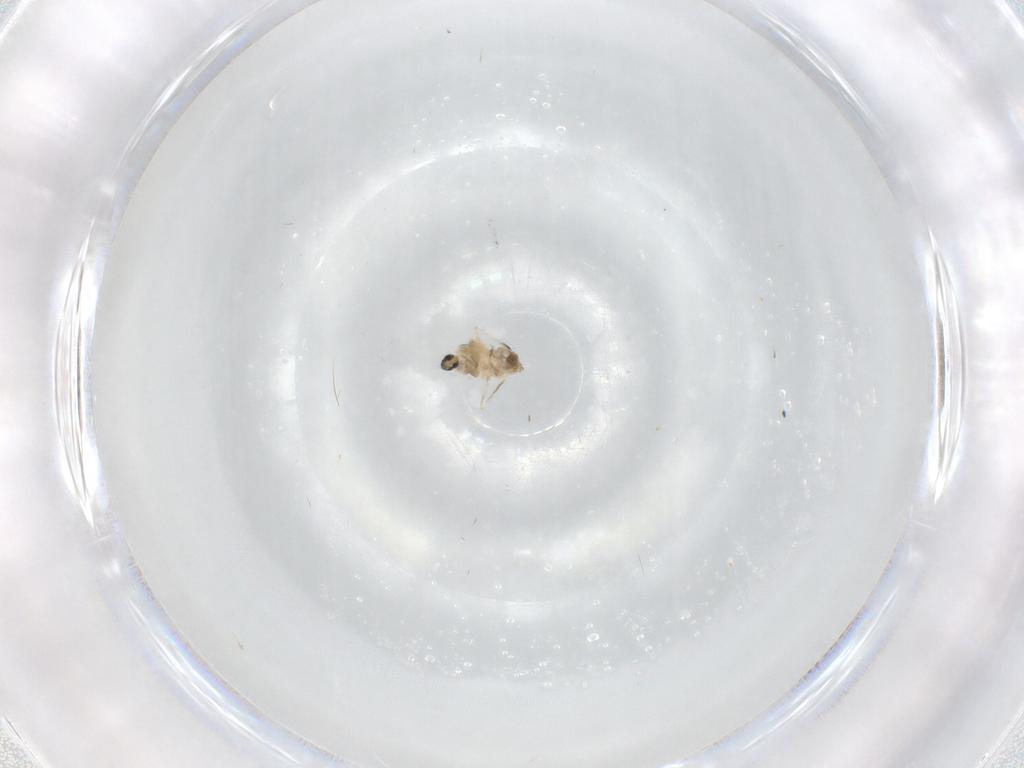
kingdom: Animalia
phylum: Arthropoda
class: Insecta
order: Diptera
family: Cecidomyiidae
